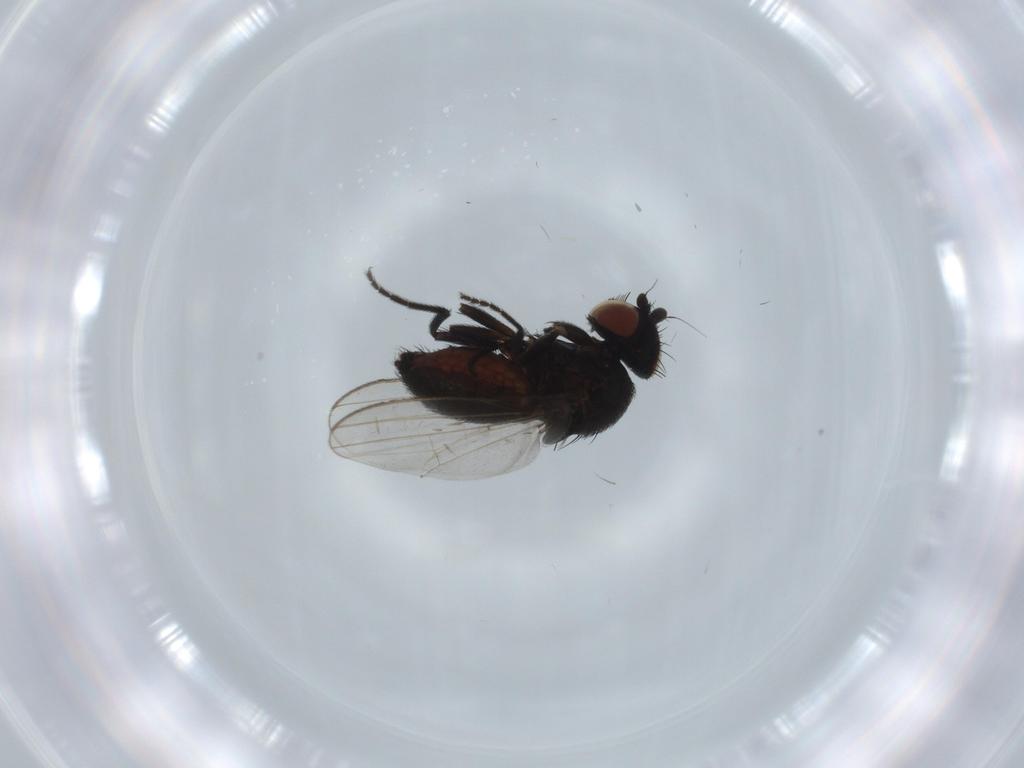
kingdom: Animalia
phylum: Arthropoda
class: Insecta
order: Diptera
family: Milichiidae
